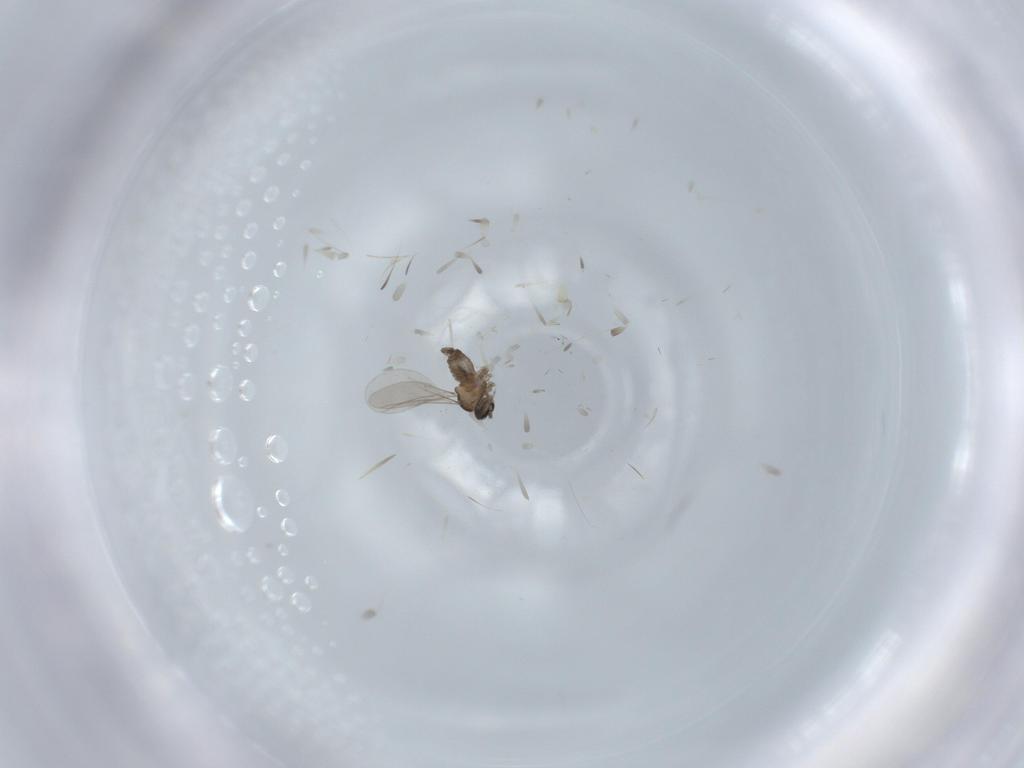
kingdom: Animalia
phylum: Arthropoda
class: Insecta
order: Diptera
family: Cecidomyiidae
